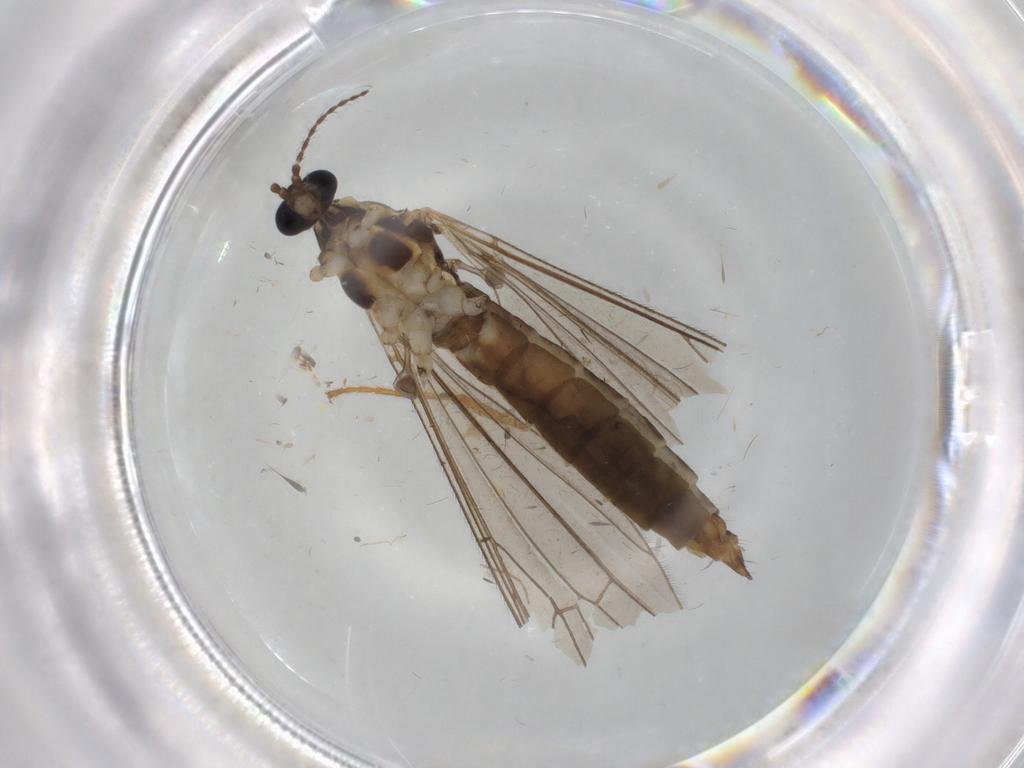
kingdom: Animalia
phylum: Arthropoda
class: Insecta
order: Diptera
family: Limoniidae
